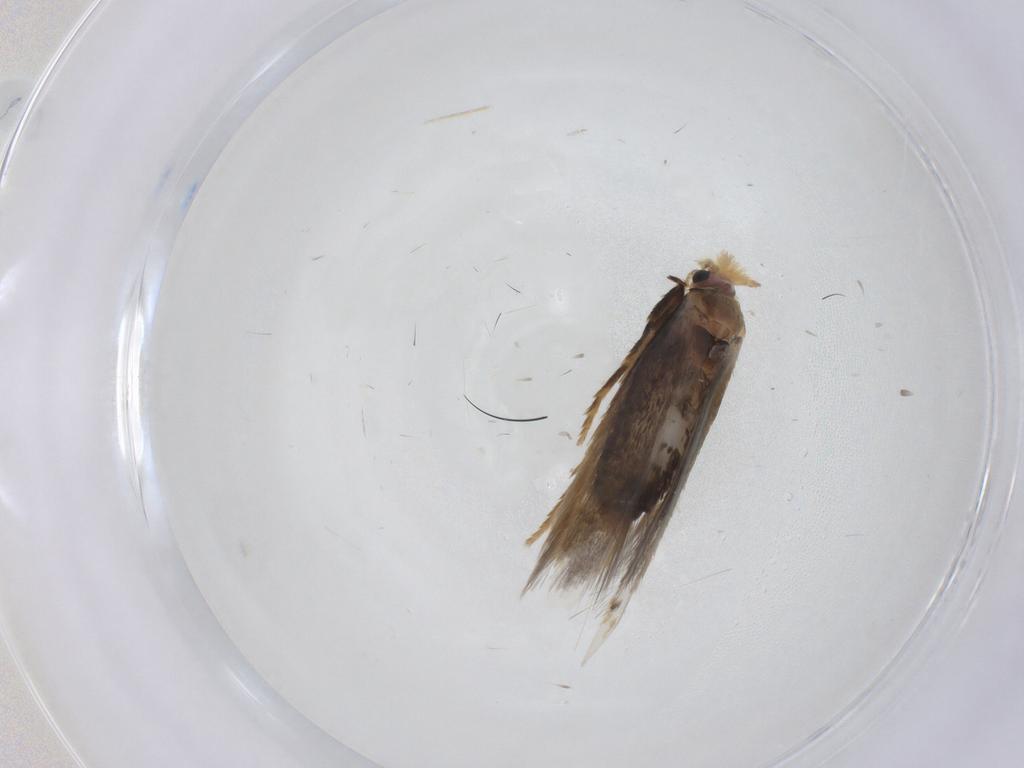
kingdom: Animalia
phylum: Arthropoda
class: Insecta
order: Lepidoptera
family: Nepticulidae
